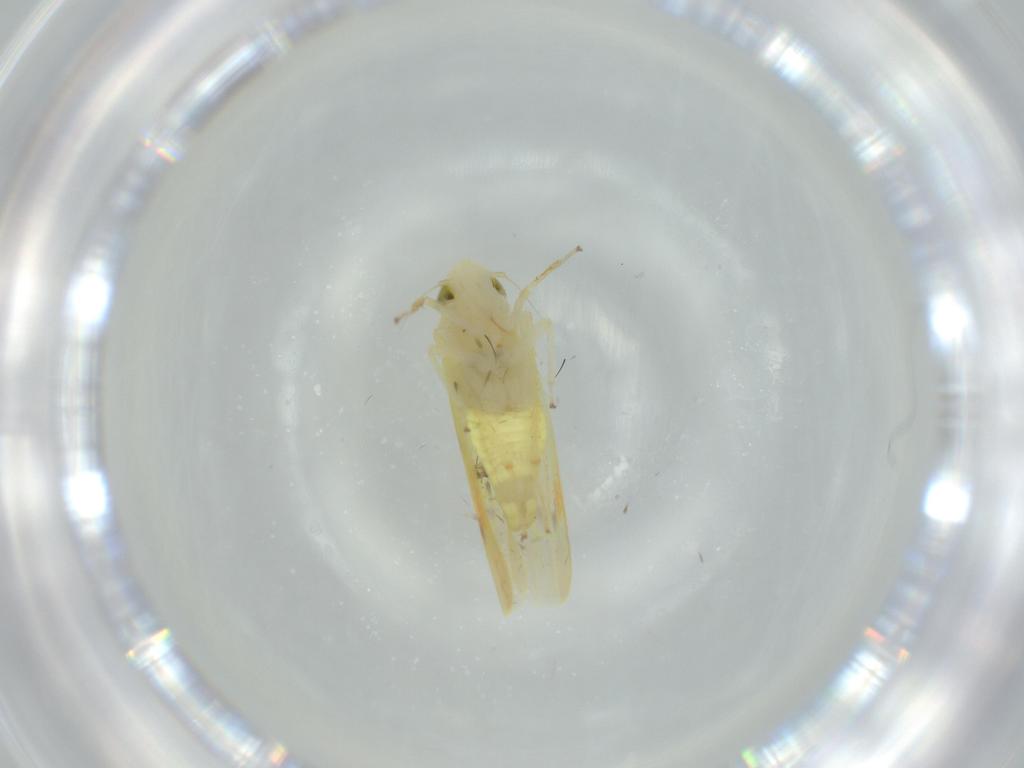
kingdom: Animalia
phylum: Arthropoda
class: Insecta
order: Hemiptera
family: Cicadellidae
